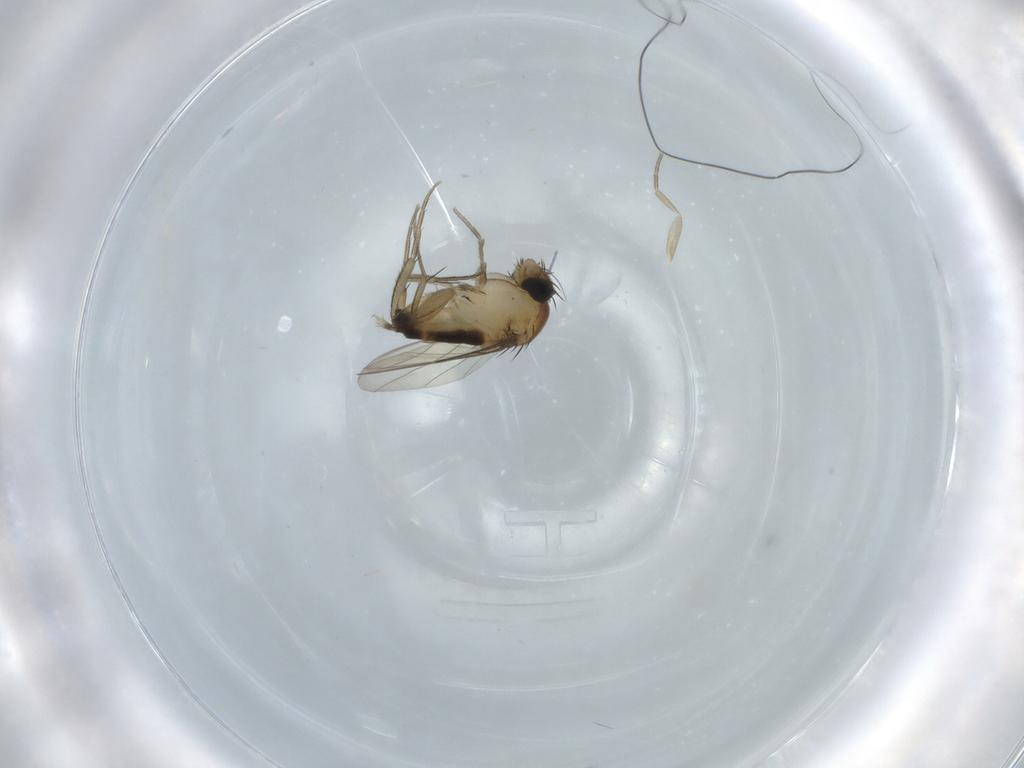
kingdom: Animalia
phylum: Arthropoda
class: Insecta
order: Diptera
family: Phoridae
